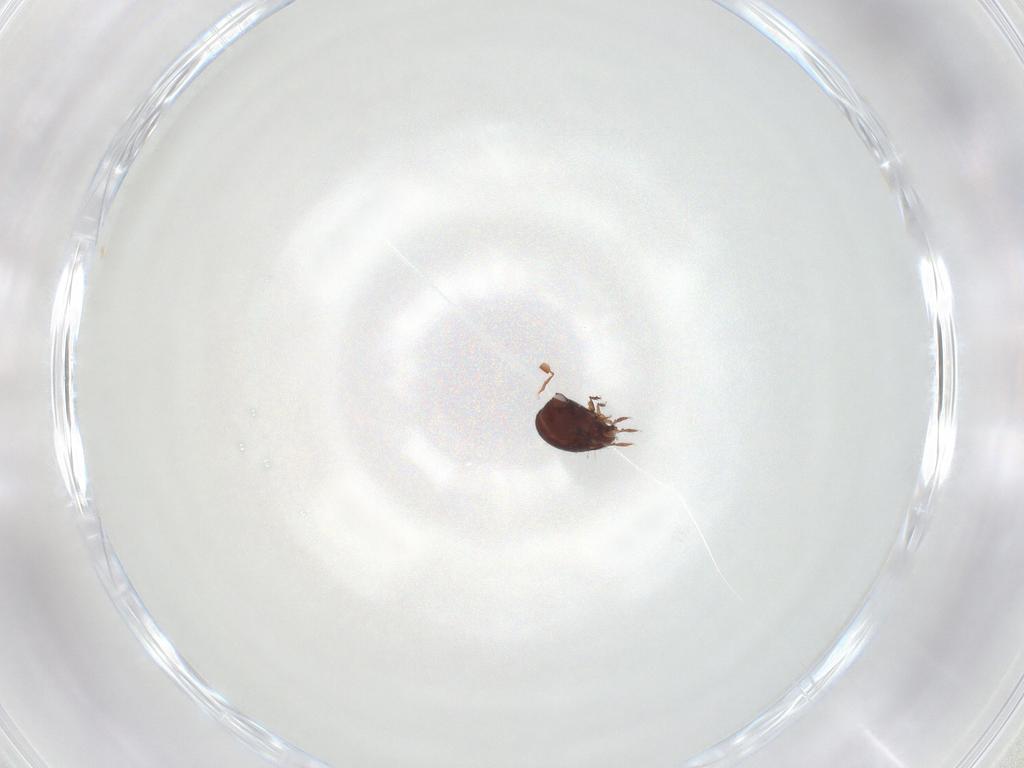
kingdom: Animalia
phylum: Arthropoda
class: Arachnida
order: Sarcoptiformes
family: Humerobatidae
